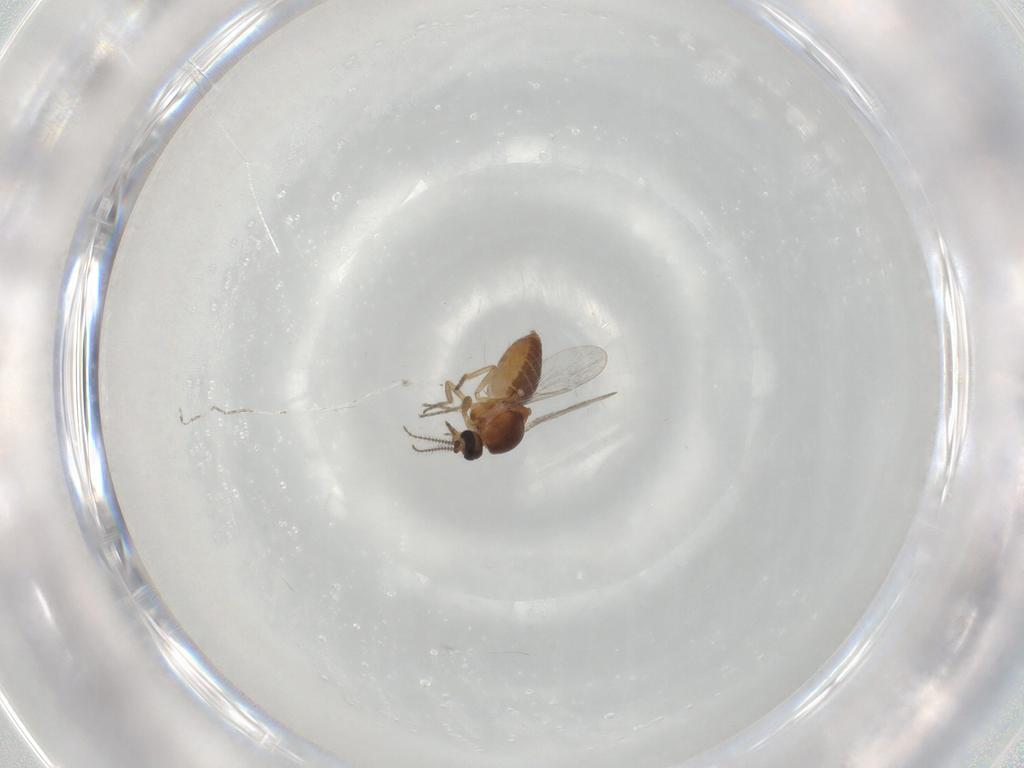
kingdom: Animalia
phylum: Arthropoda
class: Insecta
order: Diptera
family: Ceratopogonidae
